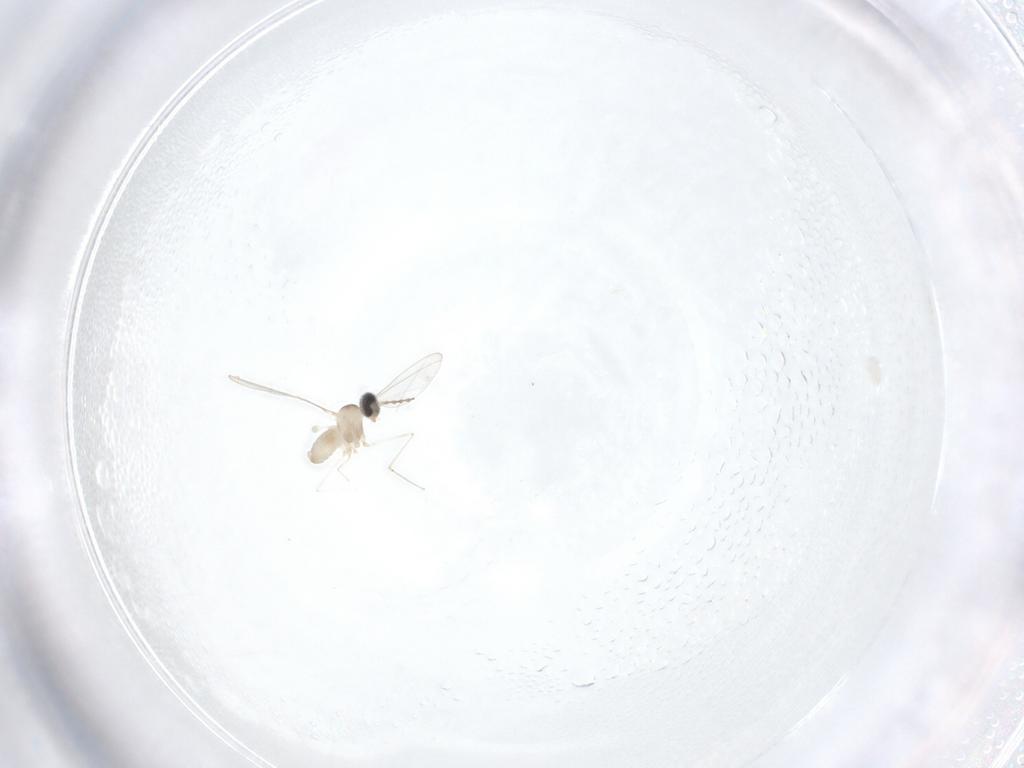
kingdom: Animalia
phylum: Arthropoda
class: Insecta
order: Diptera
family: Cecidomyiidae
